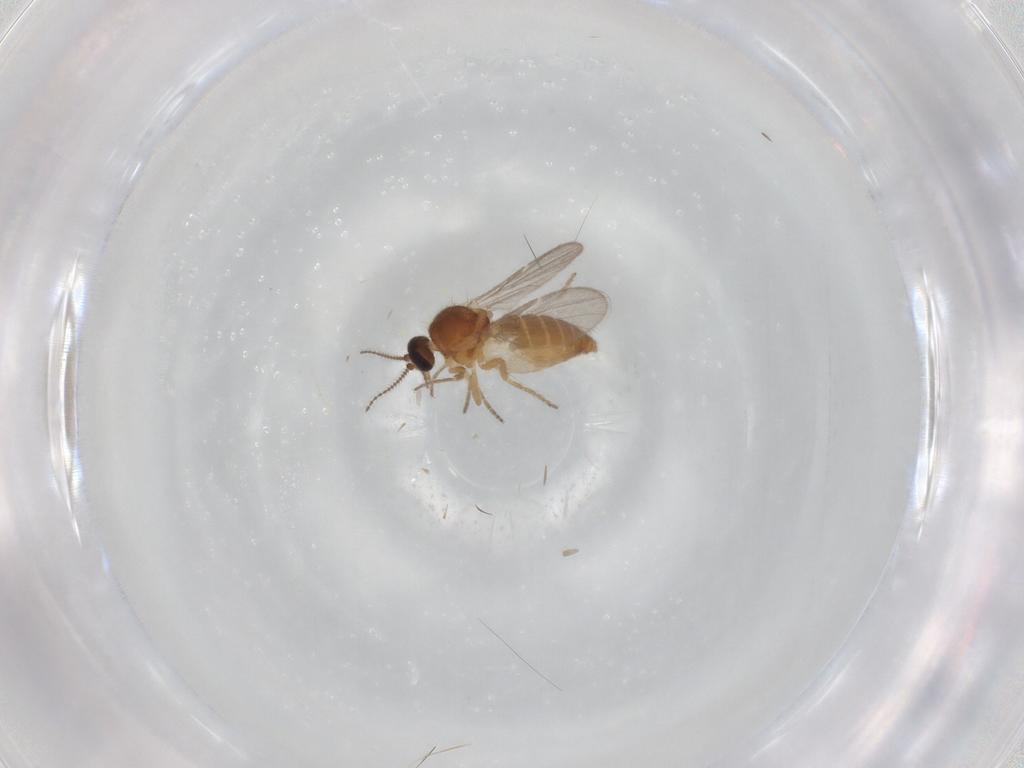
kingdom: Animalia
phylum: Arthropoda
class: Insecta
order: Diptera
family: Ceratopogonidae
